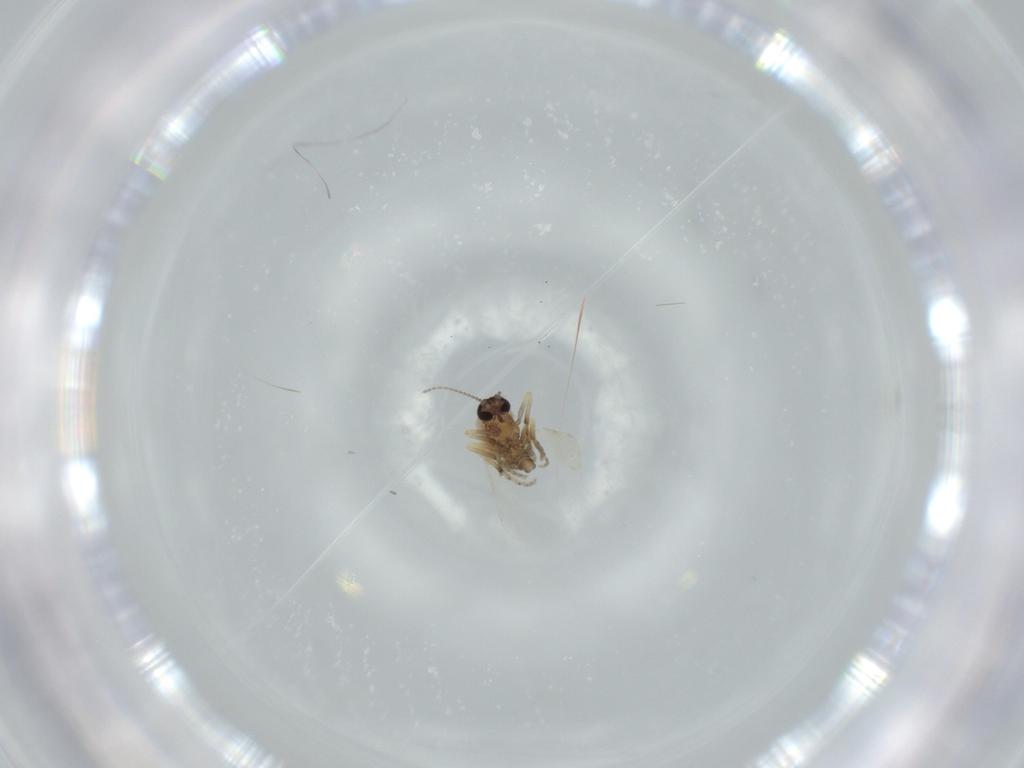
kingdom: Animalia
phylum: Arthropoda
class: Insecta
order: Diptera
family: Ceratopogonidae
